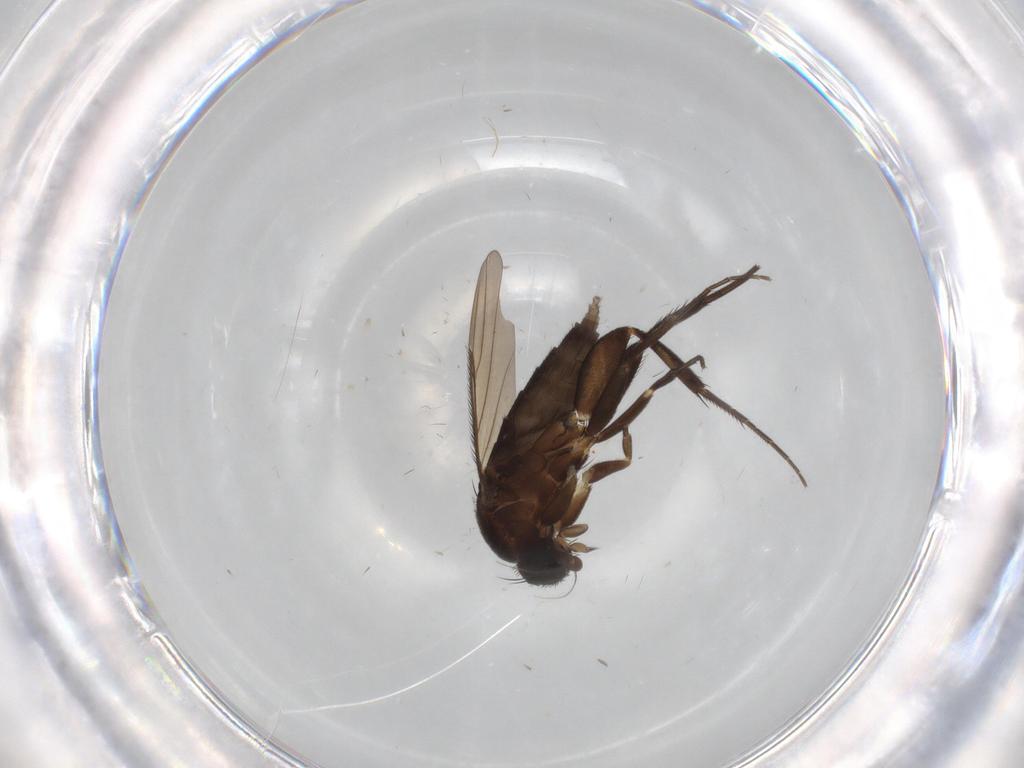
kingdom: Animalia
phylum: Arthropoda
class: Insecta
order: Diptera
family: Phoridae
